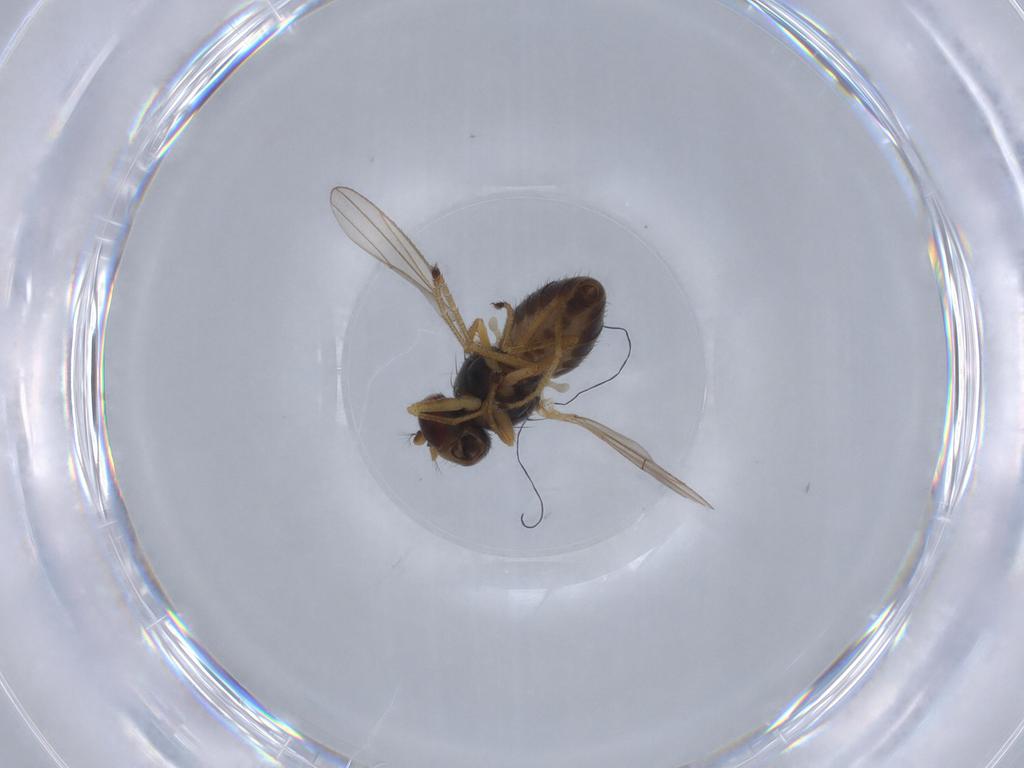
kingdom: Animalia
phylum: Arthropoda
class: Insecta
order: Diptera
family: Ephydridae
